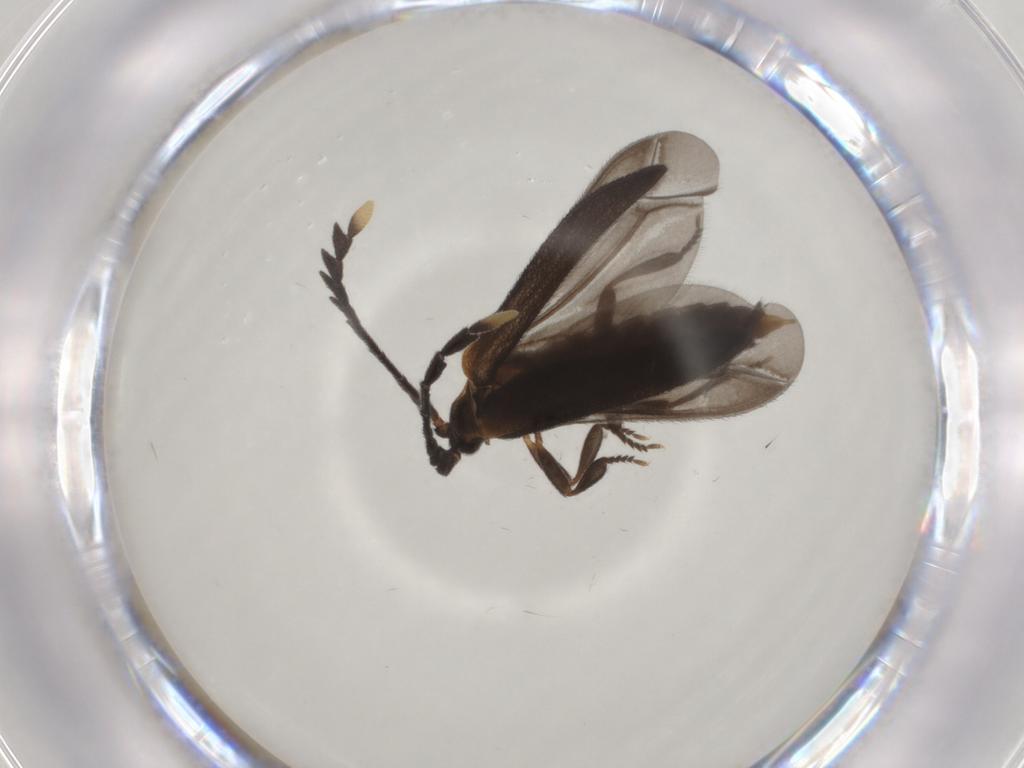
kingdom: Animalia
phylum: Arthropoda
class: Insecta
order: Coleoptera
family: Lycidae
